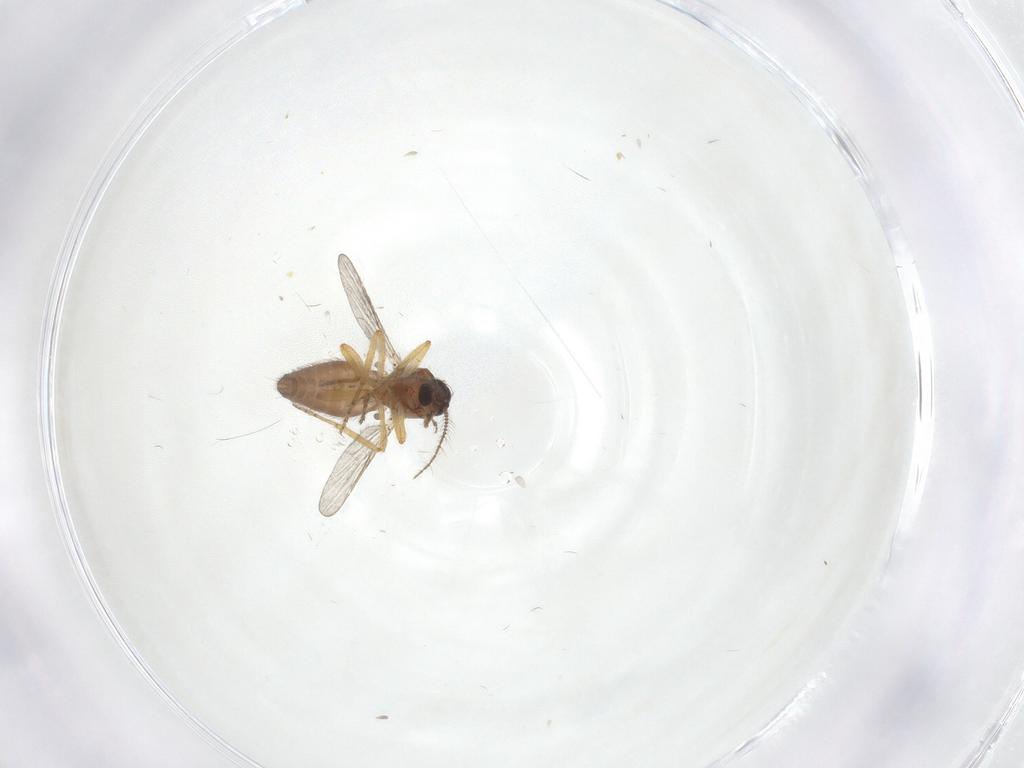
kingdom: Animalia
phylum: Arthropoda
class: Insecta
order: Diptera
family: Ceratopogonidae
